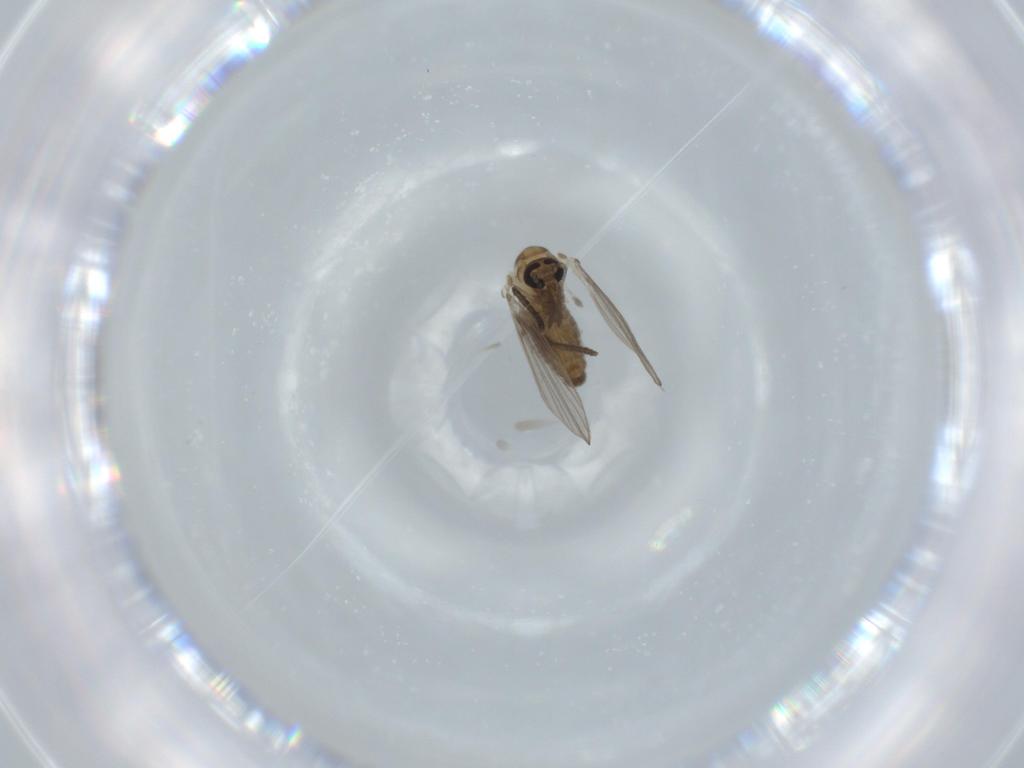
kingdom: Animalia
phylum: Arthropoda
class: Insecta
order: Diptera
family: Psychodidae
